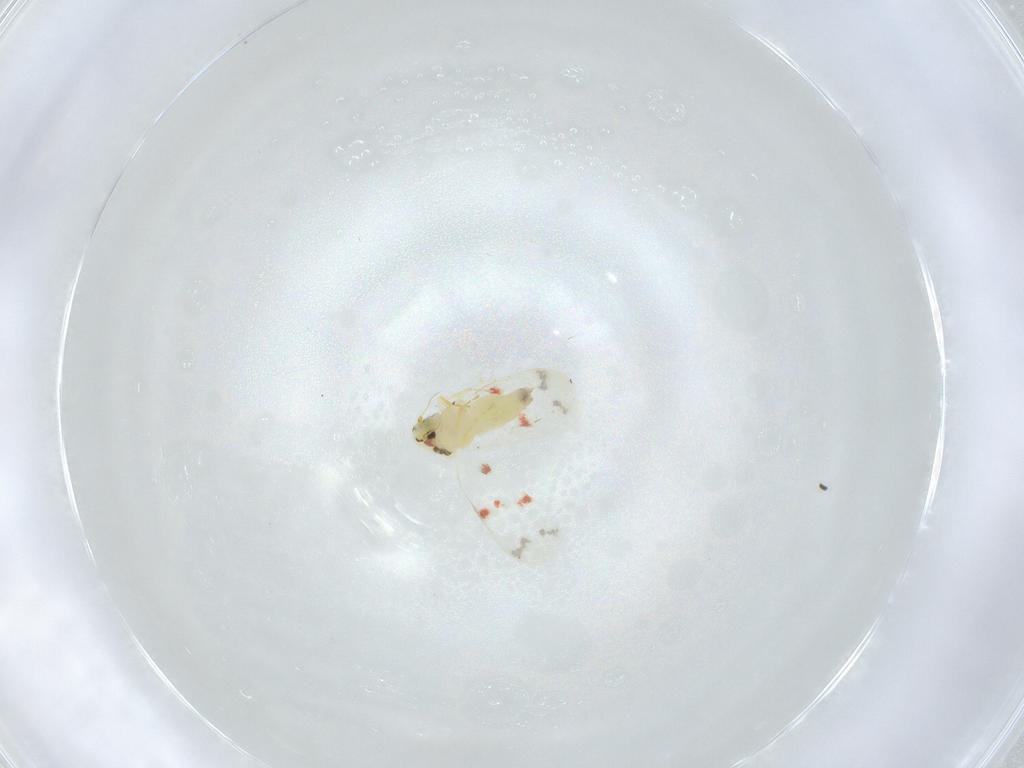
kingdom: Animalia
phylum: Arthropoda
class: Insecta
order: Hemiptera
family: Aleyrodidae
